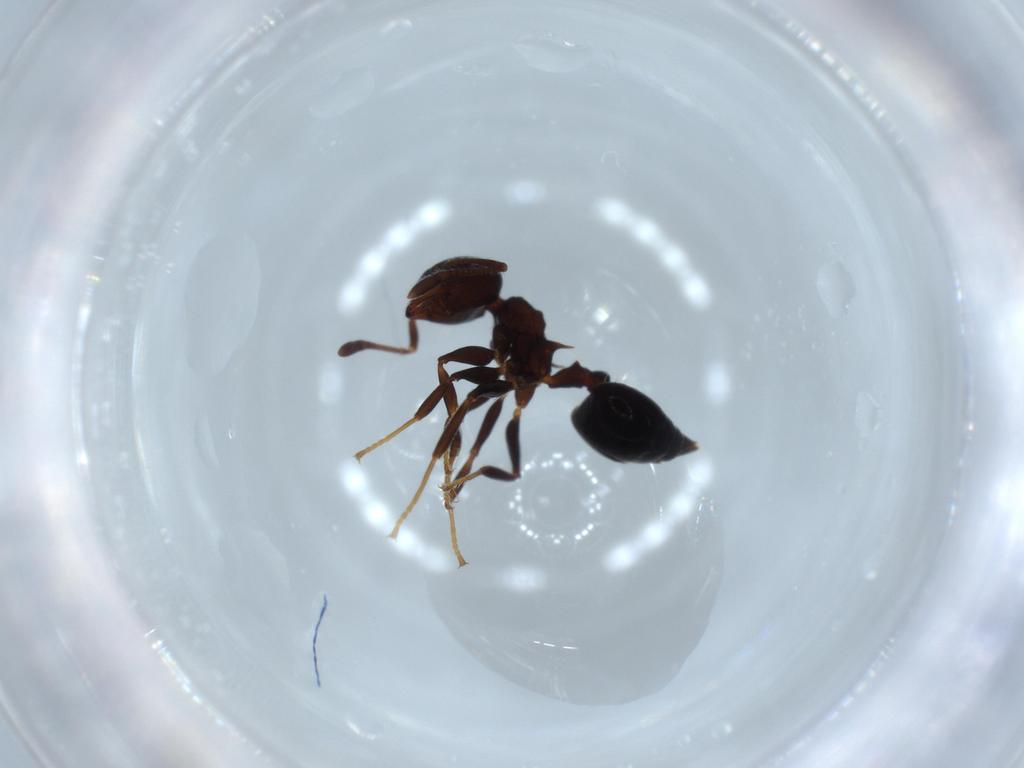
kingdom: Animalia
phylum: Arthropoda
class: Insecta
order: Hymenoptera
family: Formicidae
